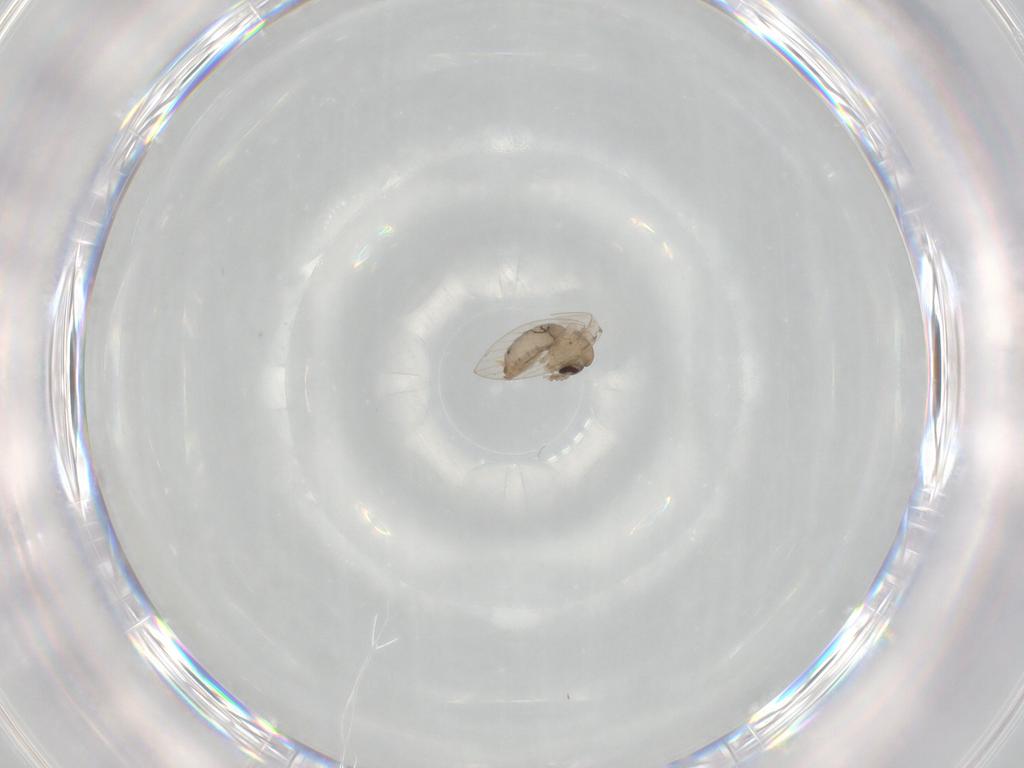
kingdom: Animalia
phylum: Arthropoda
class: Insecta
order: Diptera
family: Psychodidae
